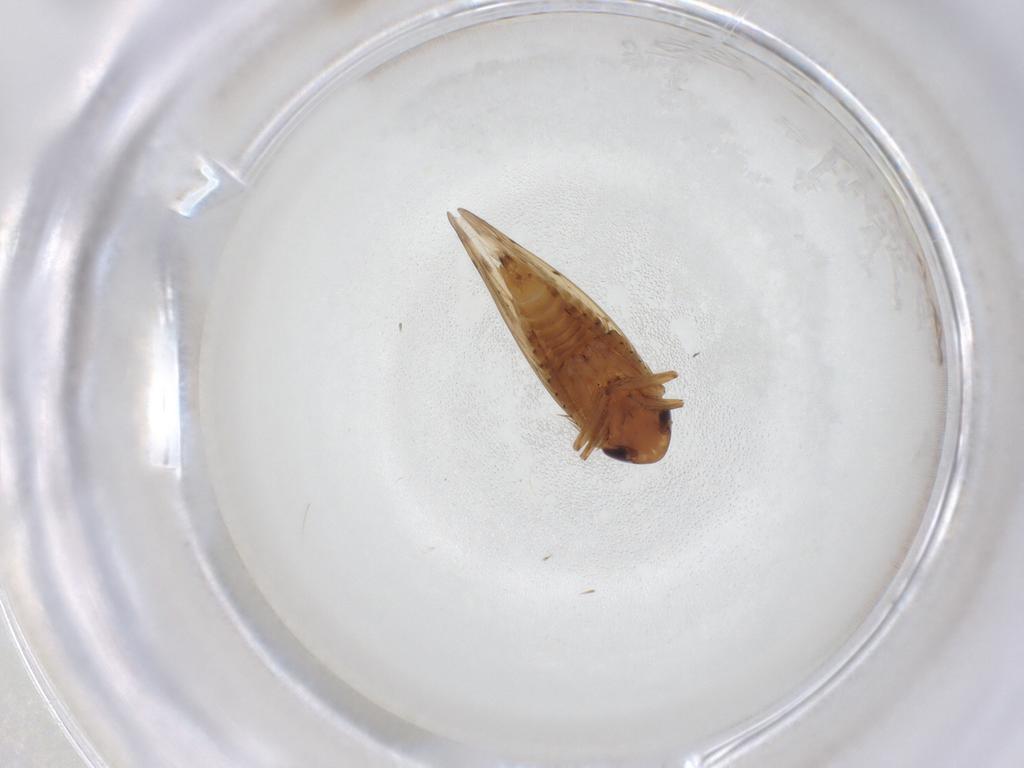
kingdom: Animalia
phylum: Arthropoda
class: Insecta
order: Hemiptera
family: Cicadellidae
